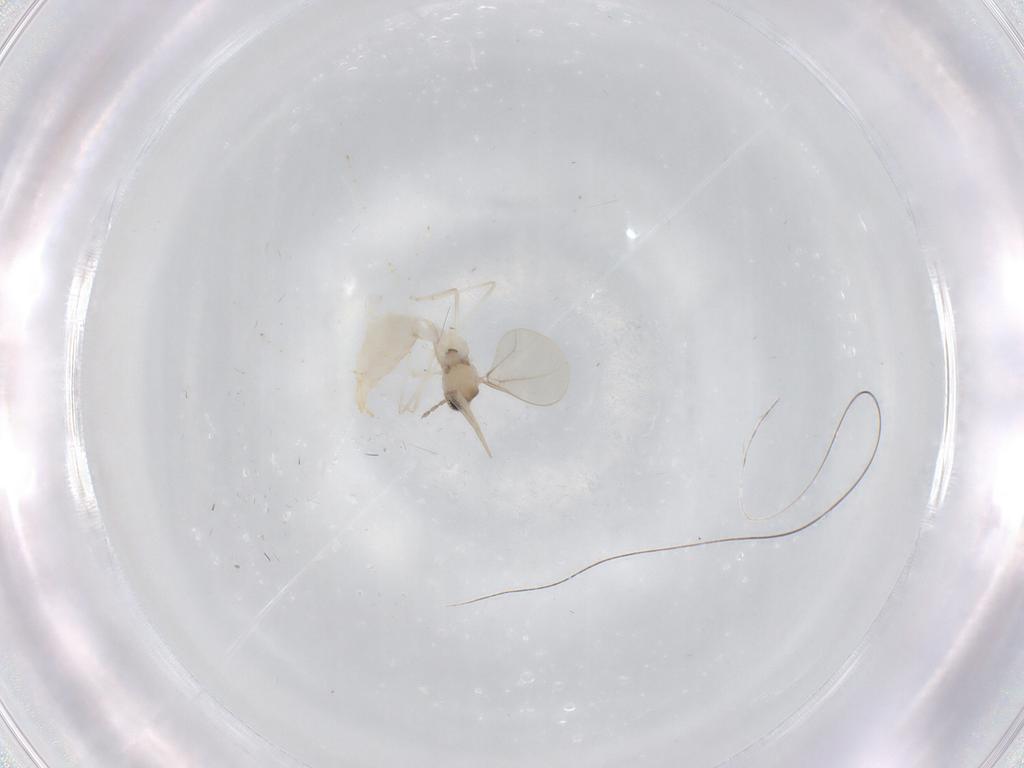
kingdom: Animalia
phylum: Arthropoda
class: Insecta
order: Diptera
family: Cecidomyiidae
